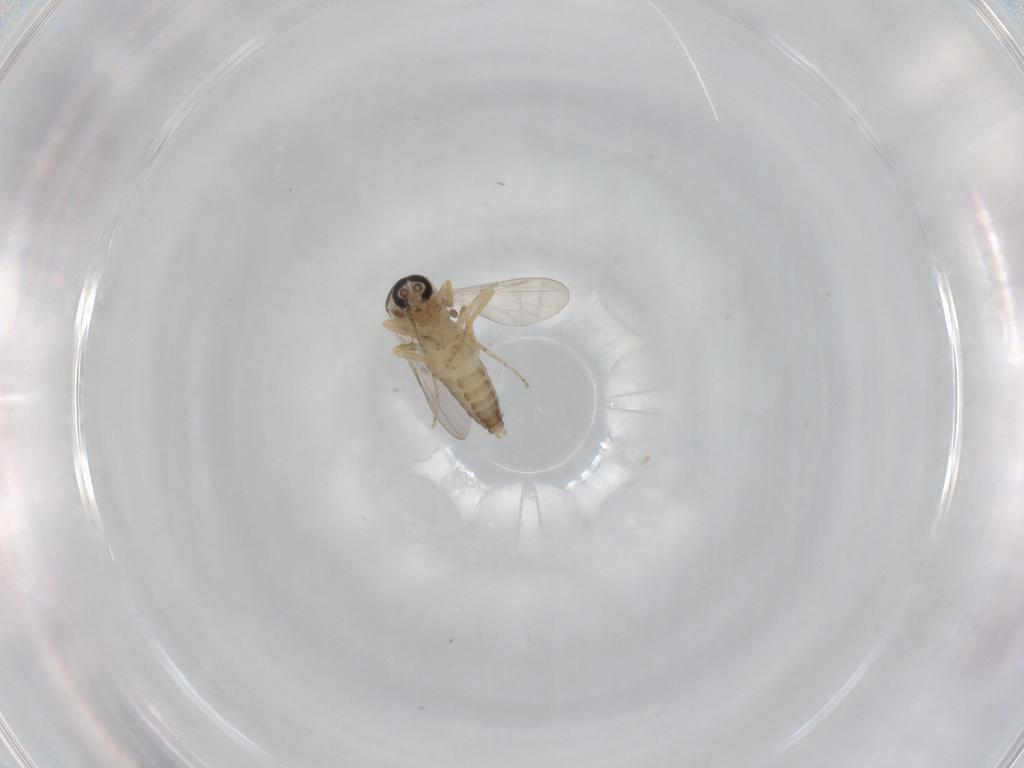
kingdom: Animalia
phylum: Arthropoda
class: Insecta
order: Diptera
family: Ceratopogonidae
